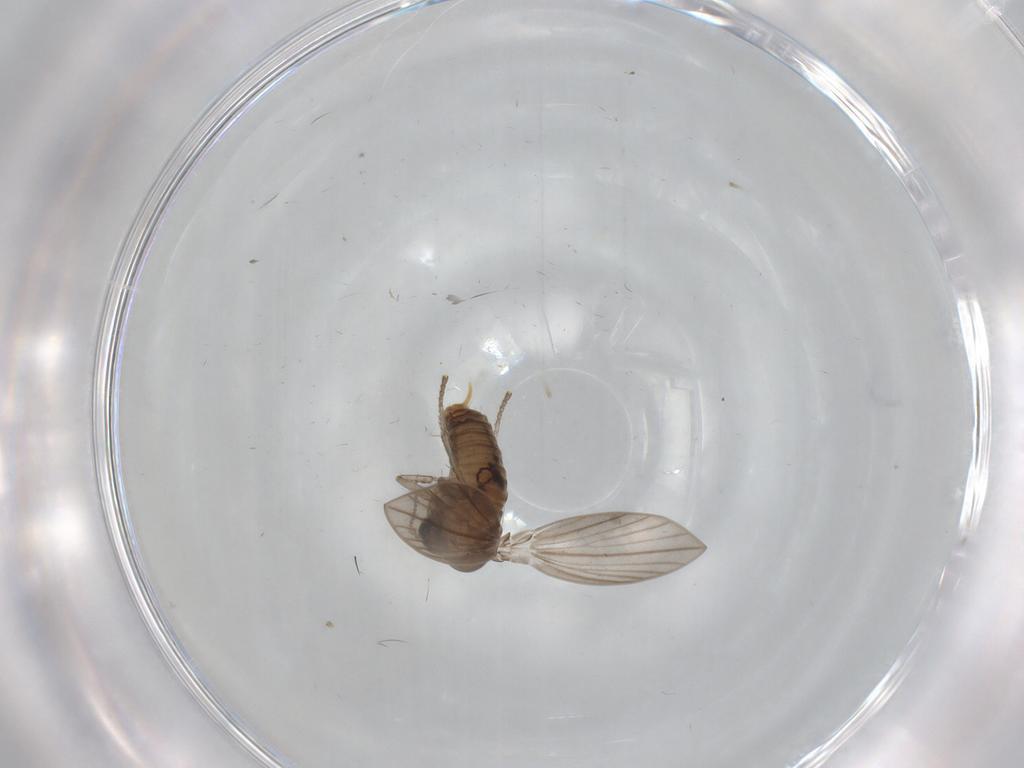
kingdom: Animalia
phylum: Arthropoda
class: Insecta
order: Diptera
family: Psychodidae
